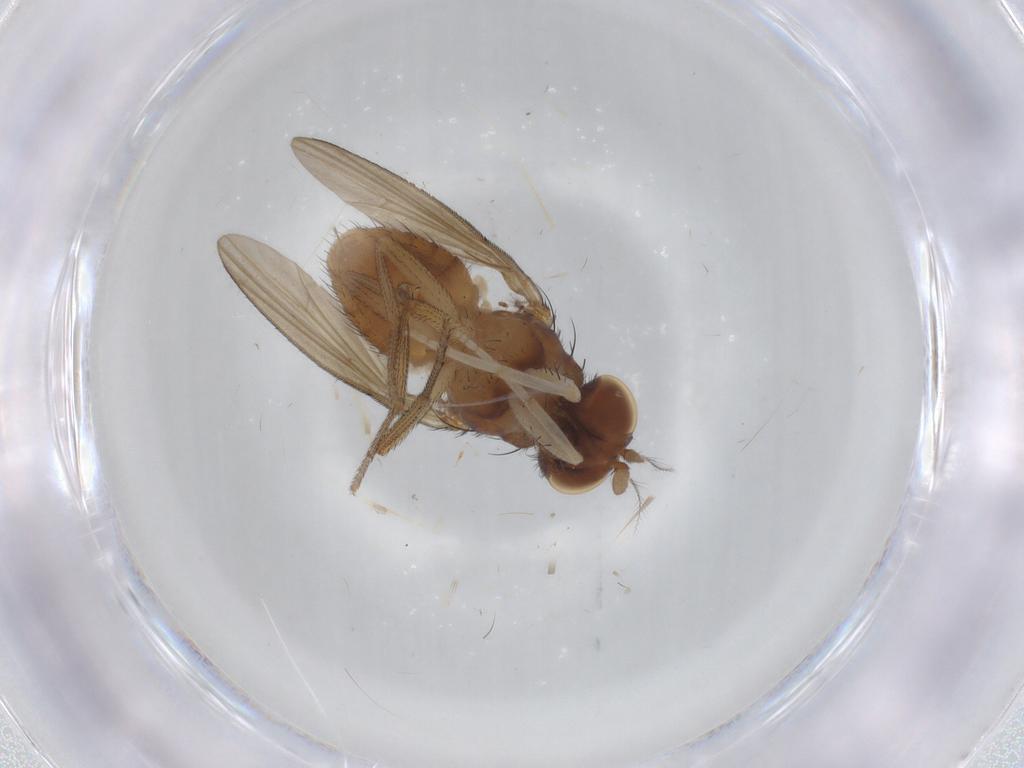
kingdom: Animalia
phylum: Arthropoda
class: Insecta
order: Diptera
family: Lauxaniidae
